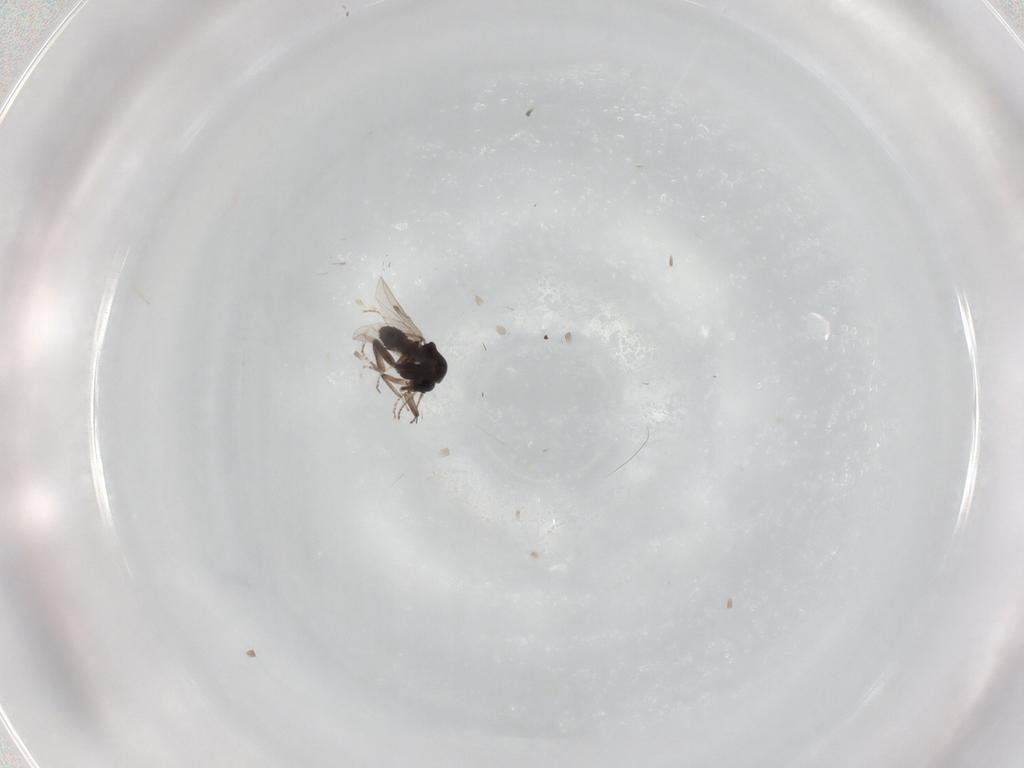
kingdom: Animalia
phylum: Arthropoda
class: Insecta
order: Diptera
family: Ceratopogonidae
